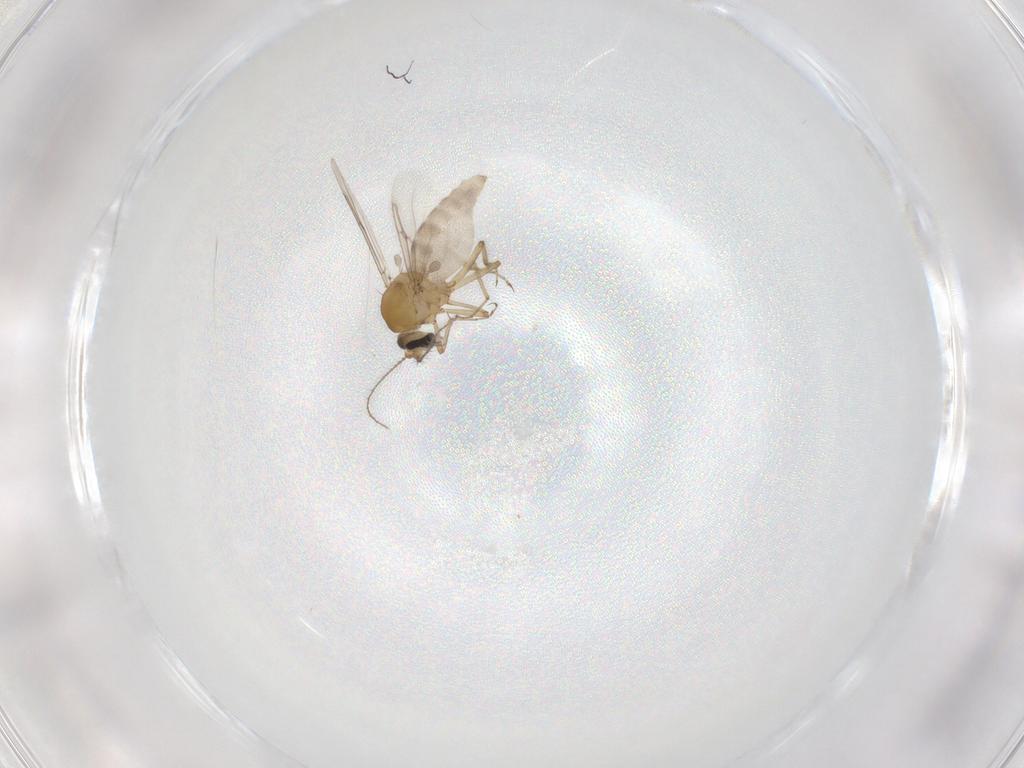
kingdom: Animalia
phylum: Arthropoda
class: Insecta
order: Diptera
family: Ceratopogonidae
